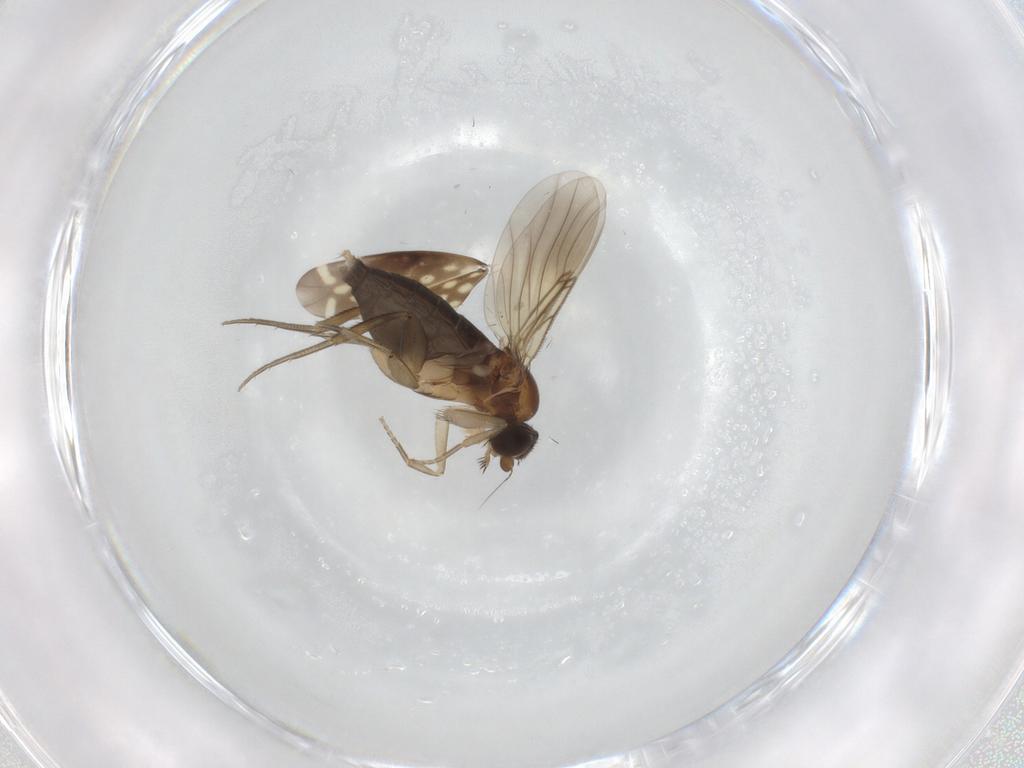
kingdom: Animalia
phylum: Arthropoda
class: Insecta
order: Diptera
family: Phoridae
